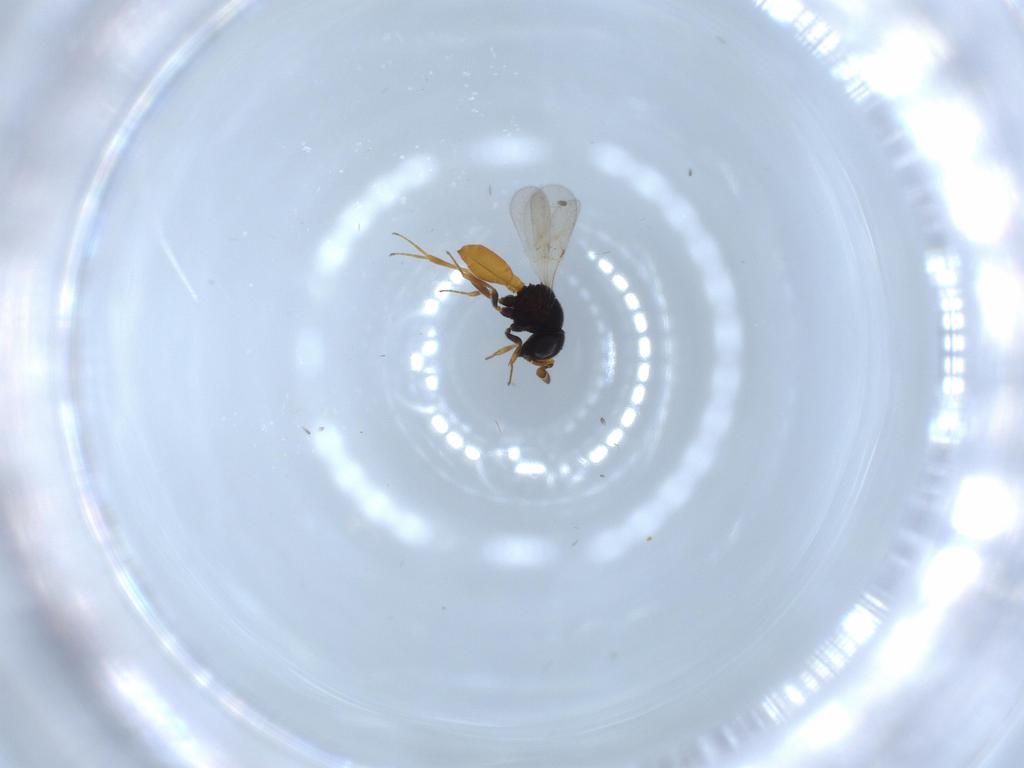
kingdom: Animalia
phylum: Arthropoda
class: Insecta
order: Hymenoptera
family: Formicidae
